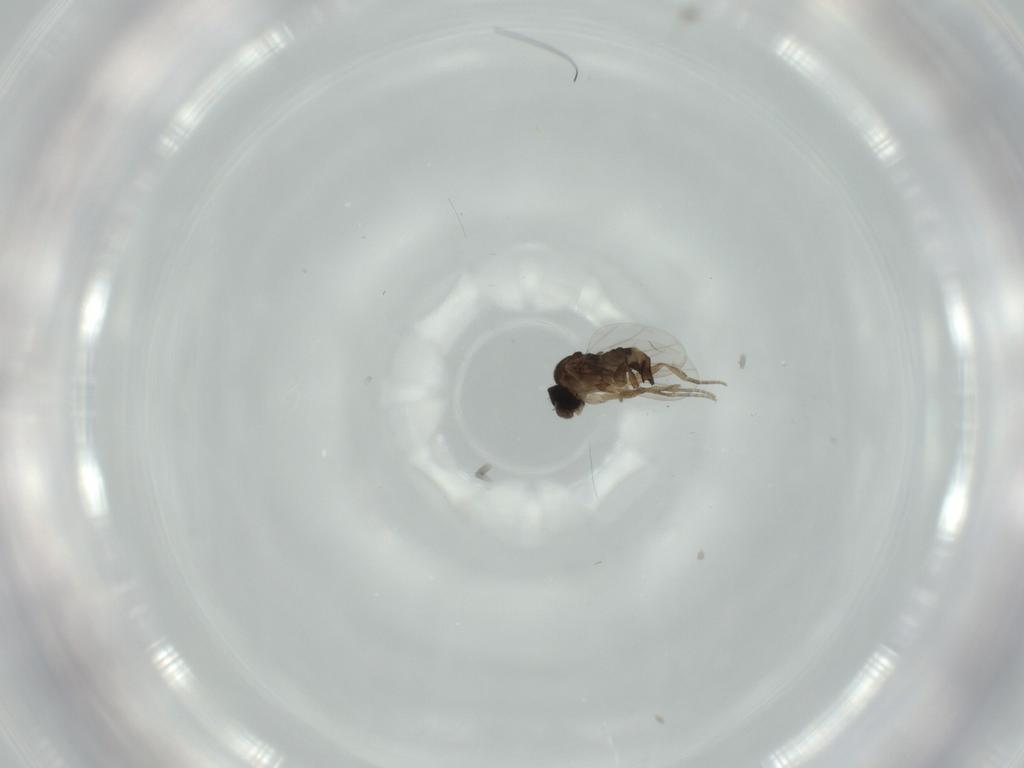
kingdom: Animalia
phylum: Arthropoda
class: Insecta
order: Diptera
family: Phoridae
